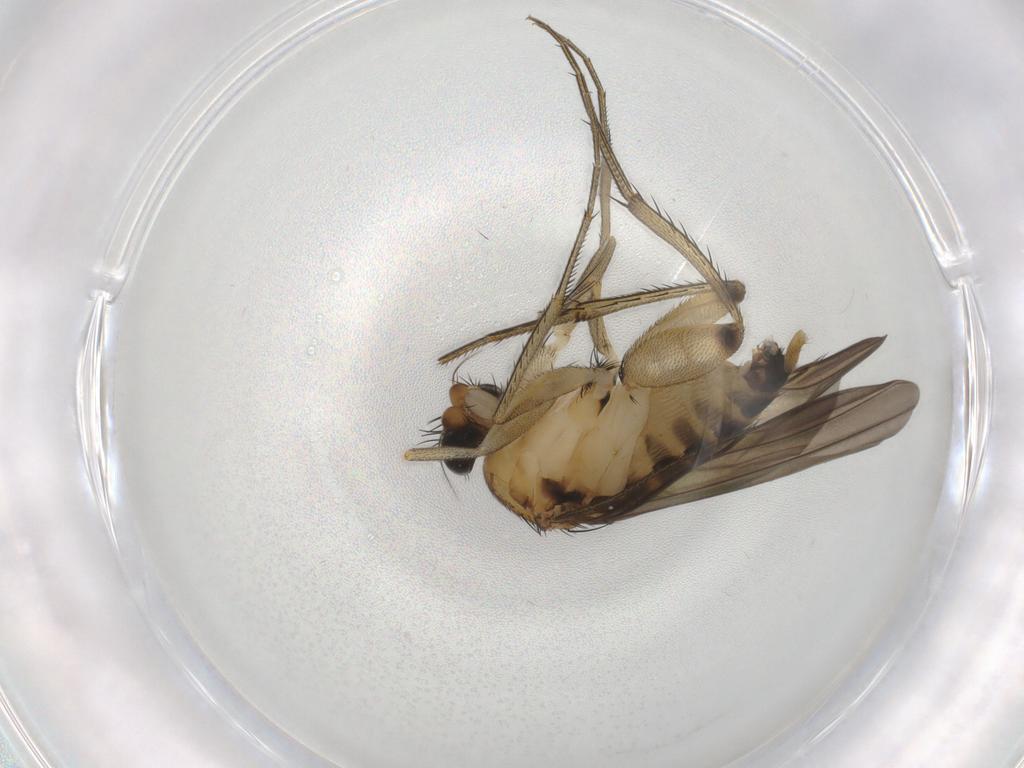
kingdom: Animalia
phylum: Arthropoda
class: Insecta
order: Diptera
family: Phoridae
